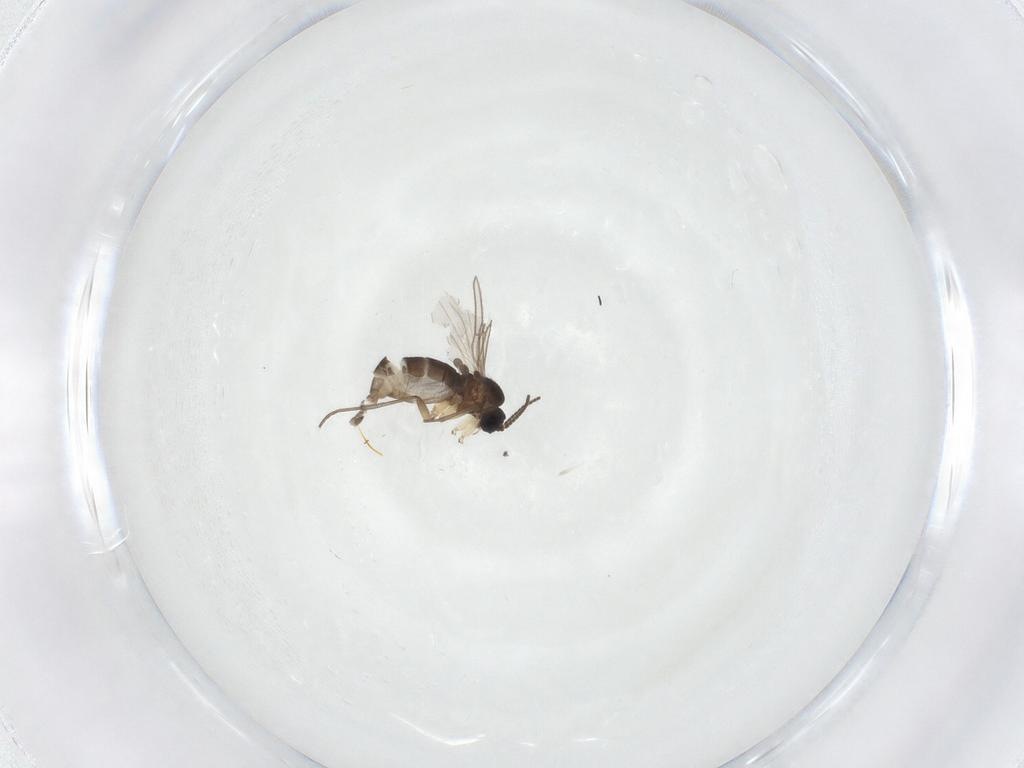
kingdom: Animalia
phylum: Arthropoda
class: Insecta
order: Diptera
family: Sciaridae
